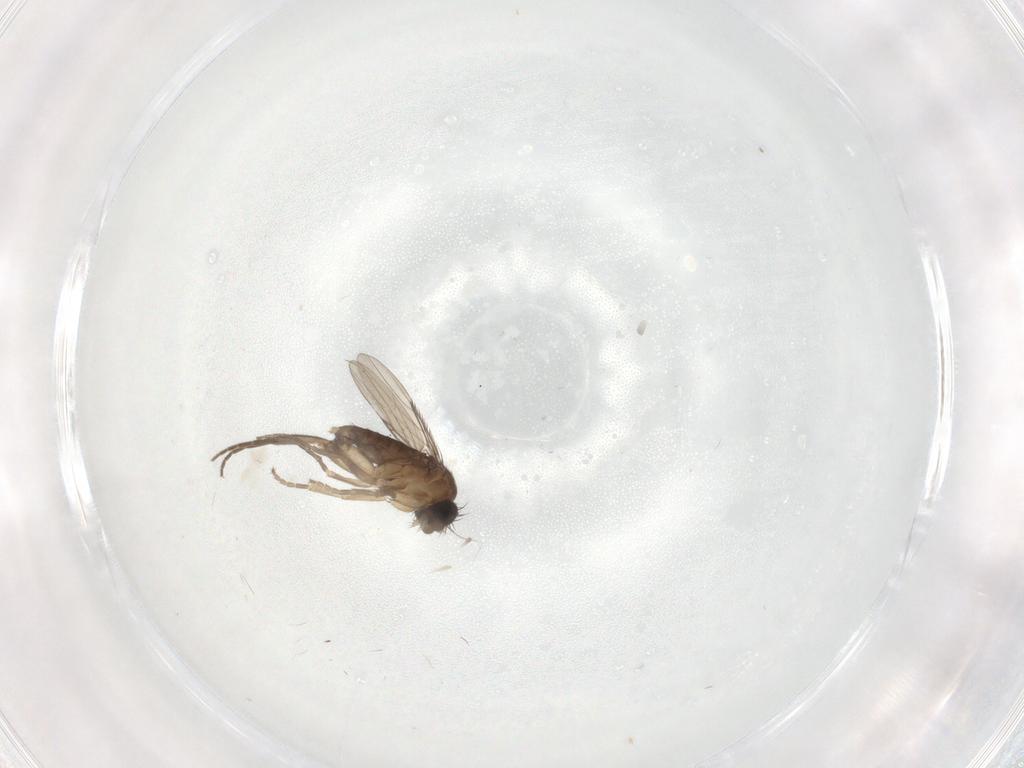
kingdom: Animalia
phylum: Arthropoda
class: Insecta
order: Diptera
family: Phoridae
